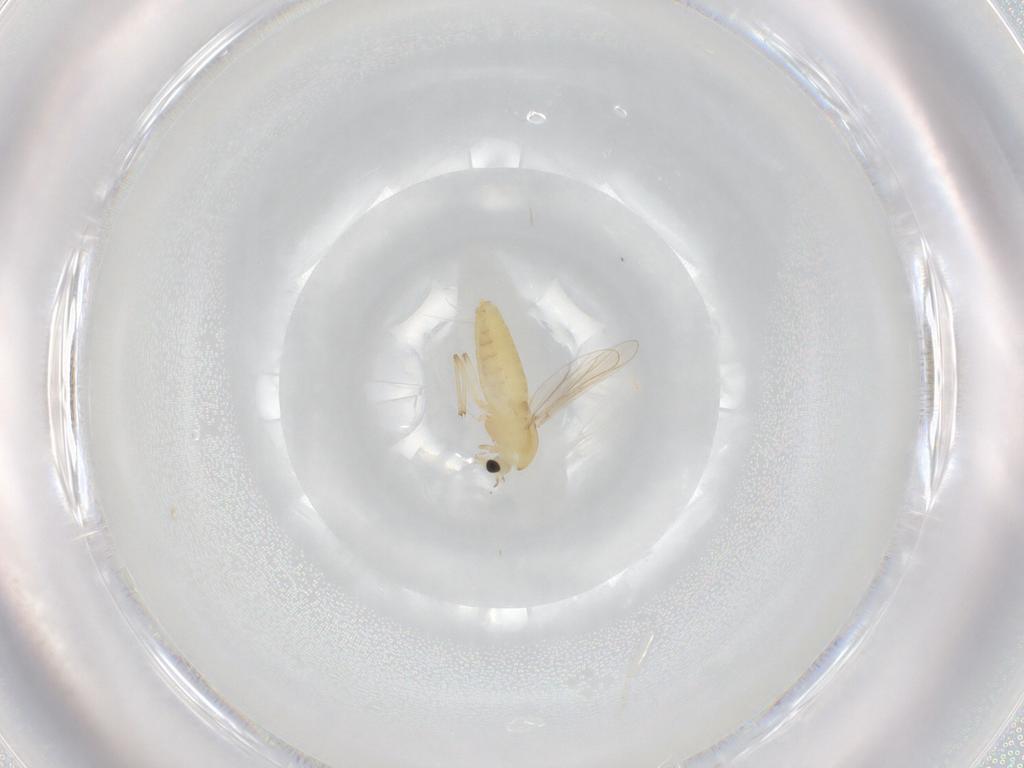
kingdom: Animalia
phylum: Arthropoda
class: Insecta
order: Diptera
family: Chironomidae
